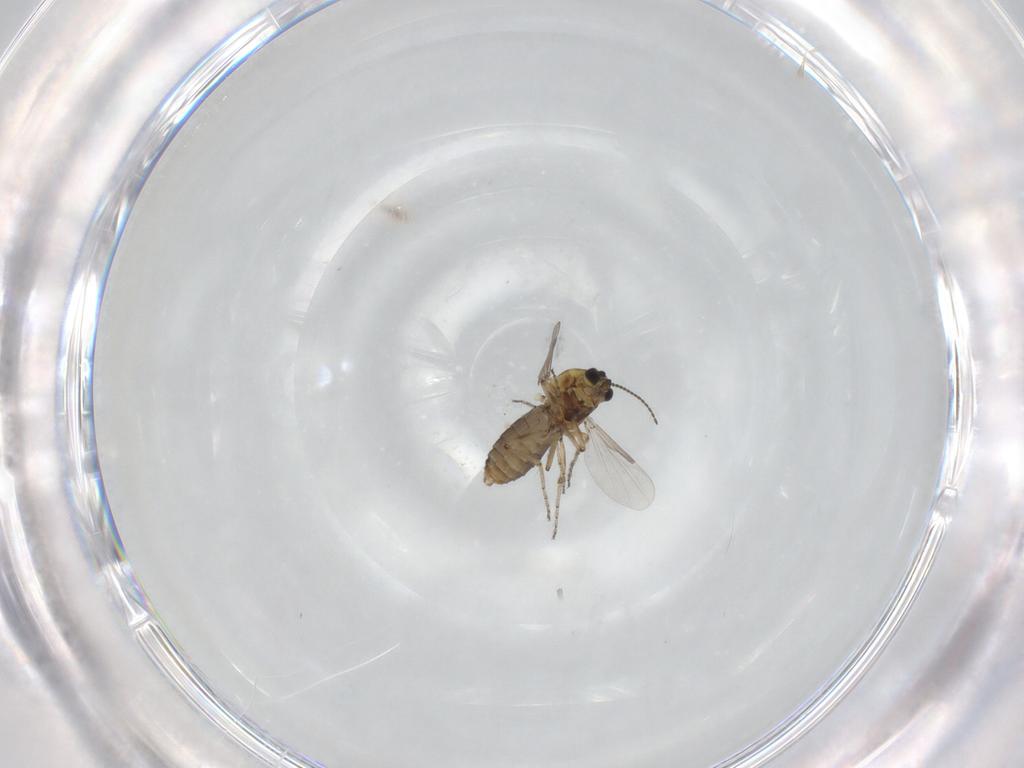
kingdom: Animalia
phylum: Arthropoda
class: Insecta
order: Diptera
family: Ceratopogonidae
